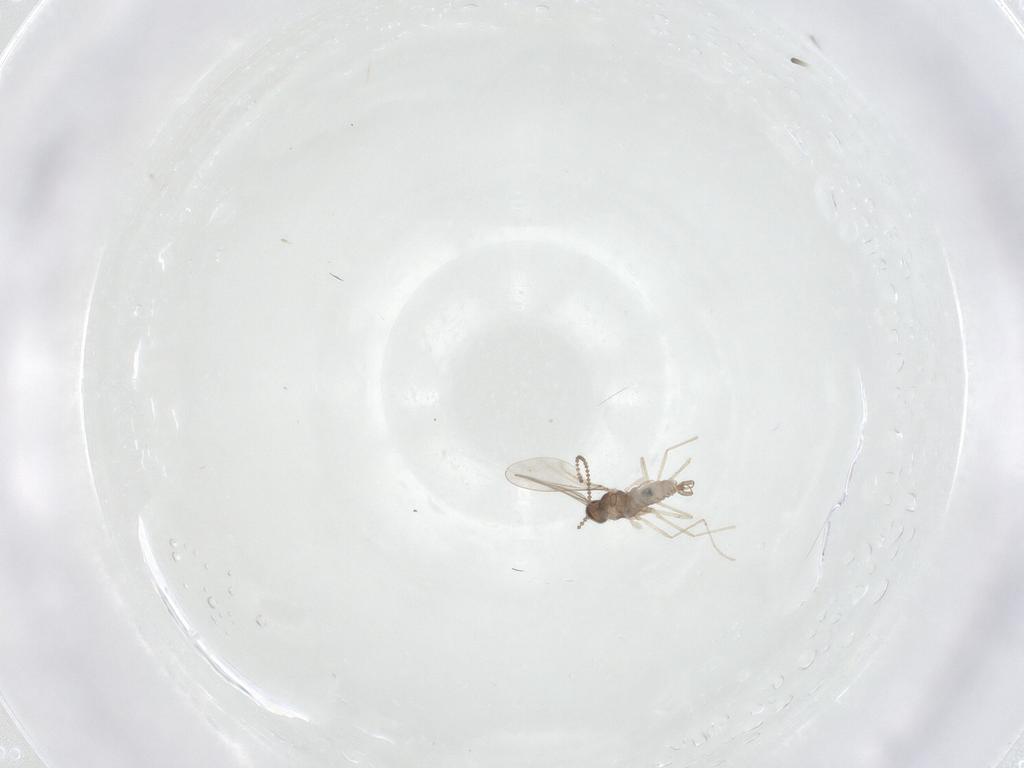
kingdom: Animalia
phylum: Arthropoda
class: Insecta
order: Diptera
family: Cecidomyiidae
